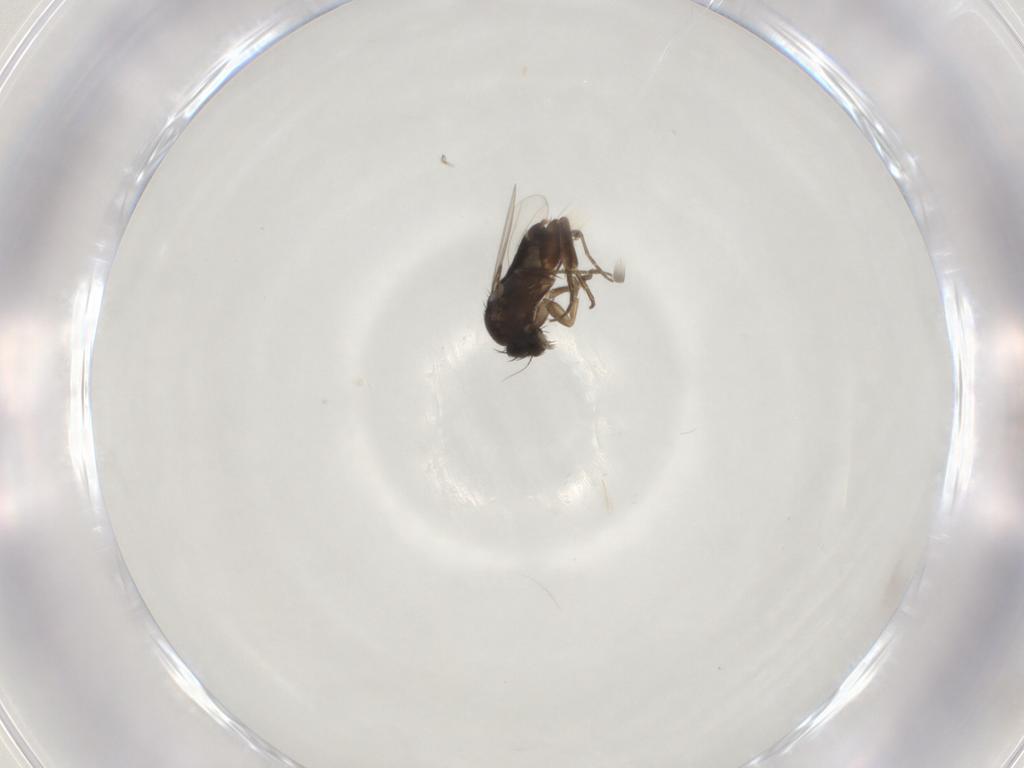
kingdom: Animalia
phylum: Arthropoda
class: Insecta
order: Diptera
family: Phoridae
